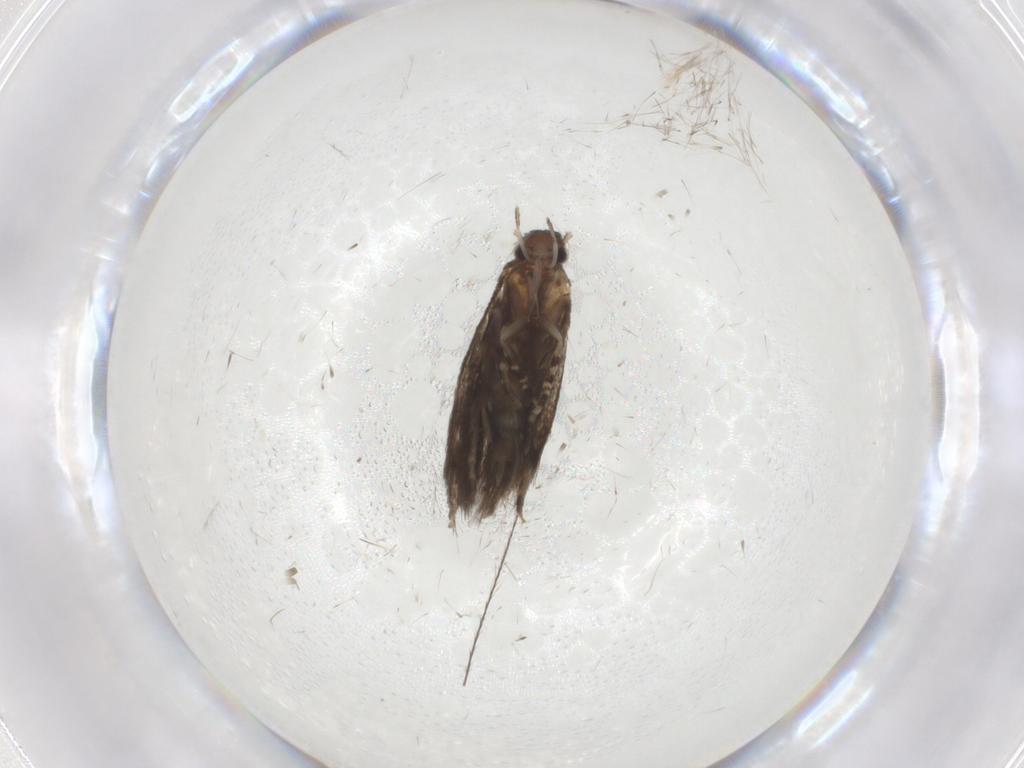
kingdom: Animalia
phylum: Arthropoda
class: Insecta
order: Lepidoptera
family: Elachistidae
